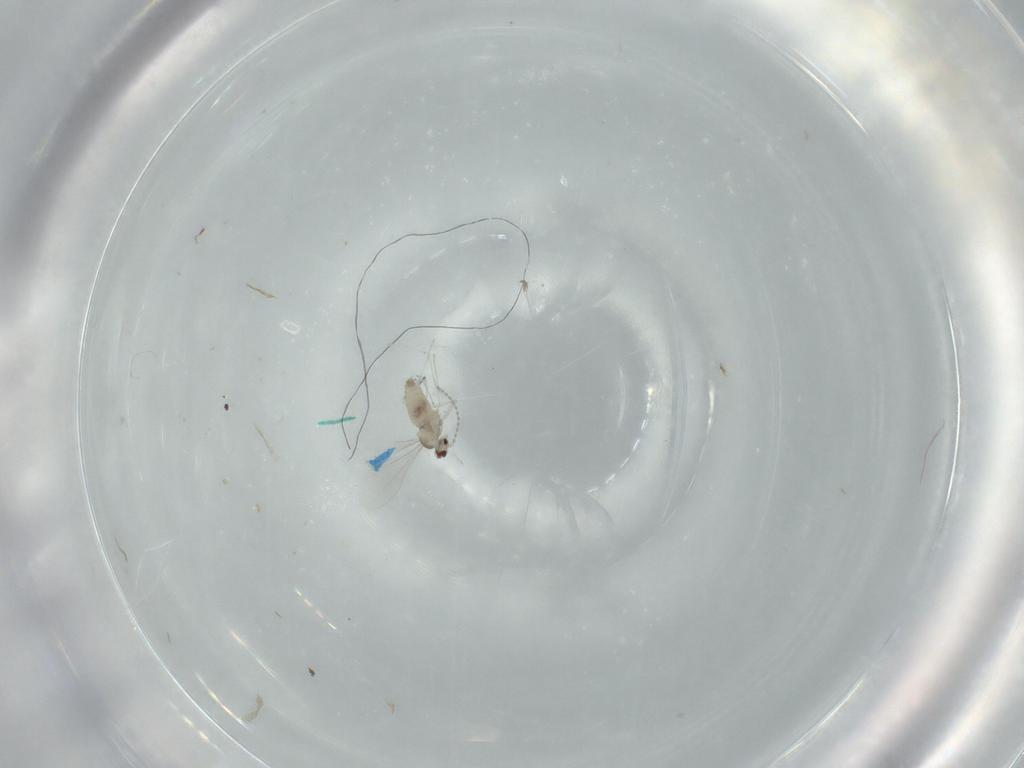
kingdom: Animalia
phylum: Arthropoda
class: Insecta
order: Diptera
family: Cecidomyiidae
